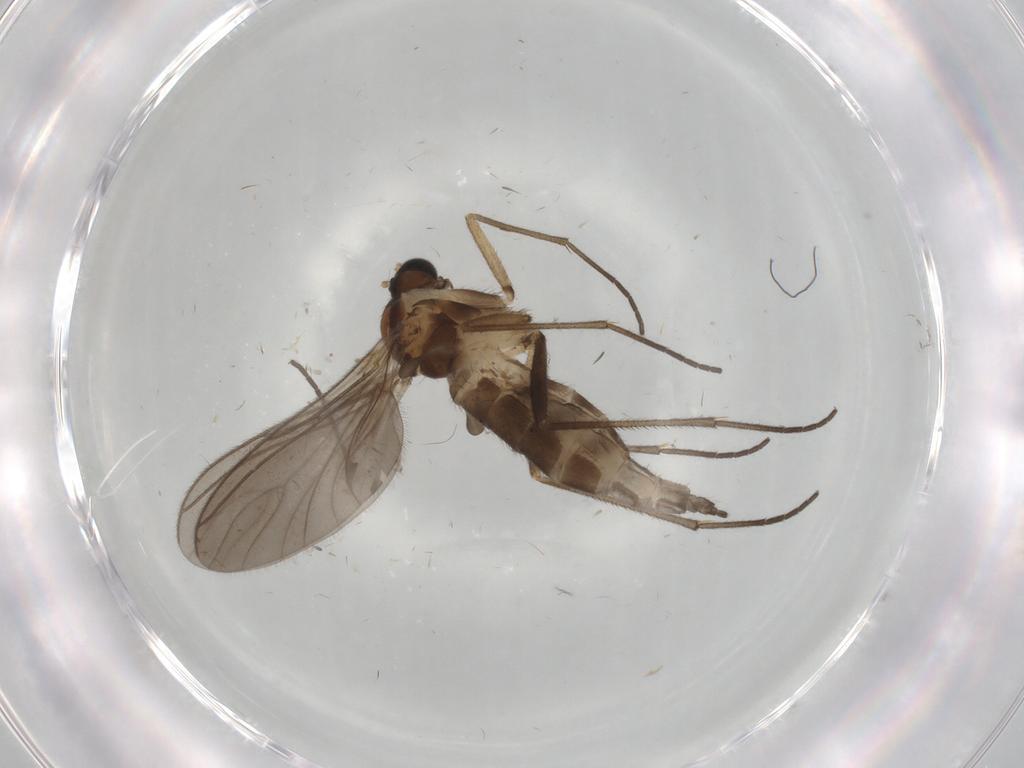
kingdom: Animalia
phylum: Arthropoda
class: Insecta
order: Diptera
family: Sciaridae
